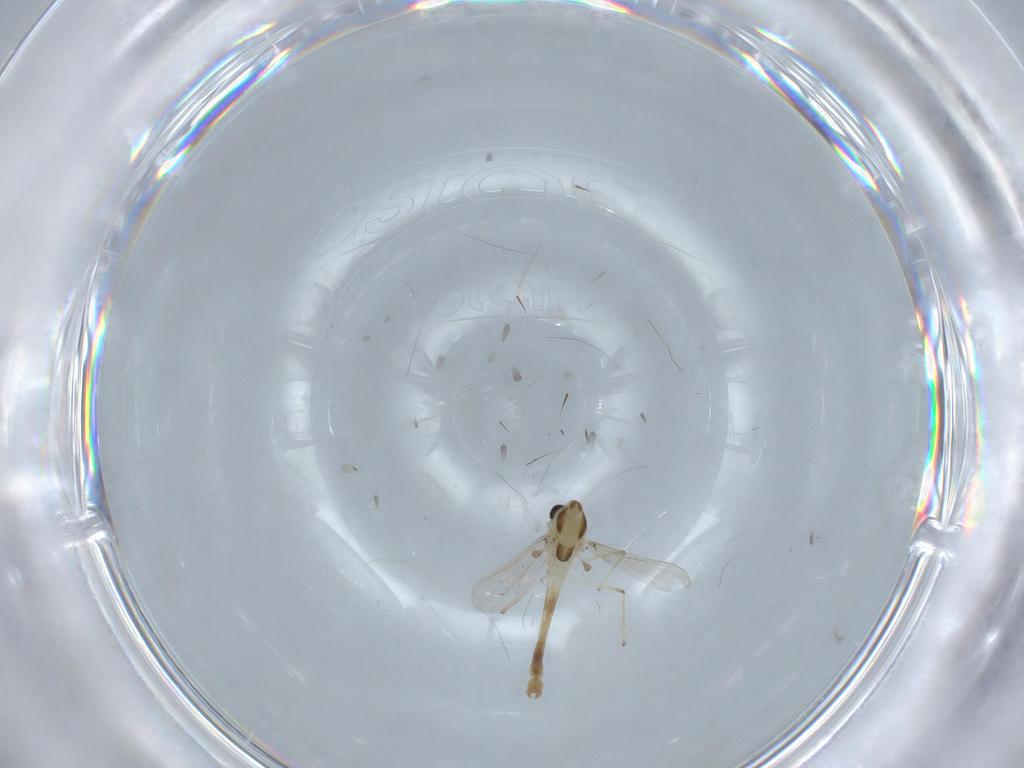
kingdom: Animalia
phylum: Arthropoda
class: Insecta
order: Diptera
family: Chironomidae
